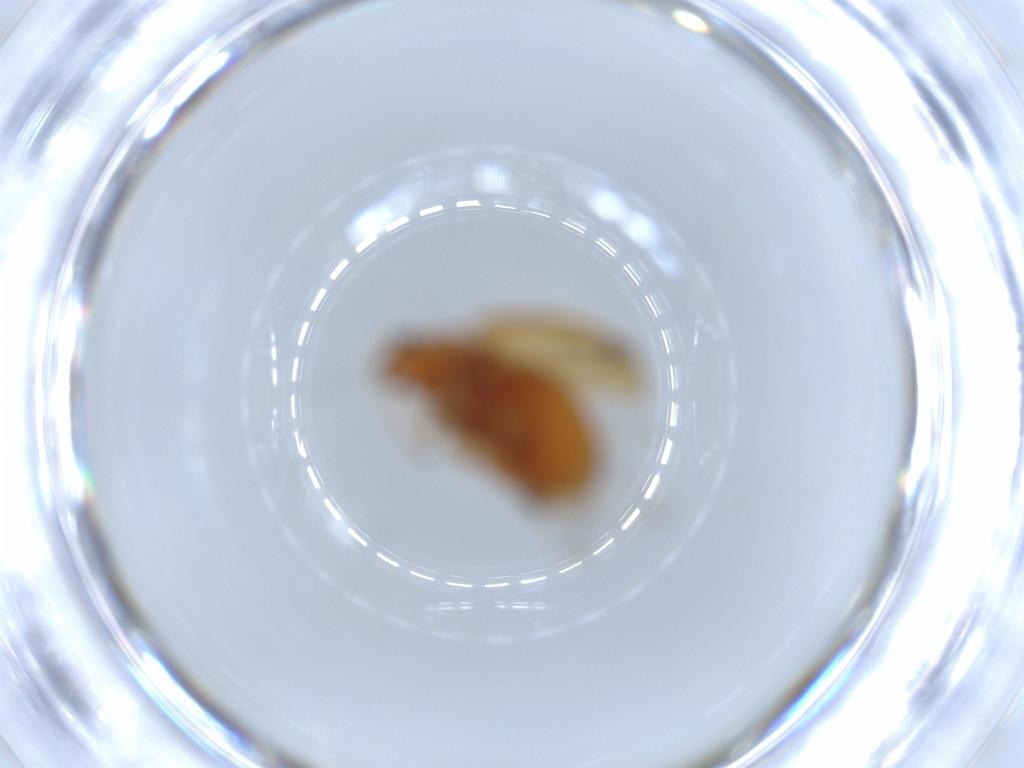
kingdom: Animalia
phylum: Arthropoda
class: Insecta
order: Coleoptera
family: Chrysomelidae
